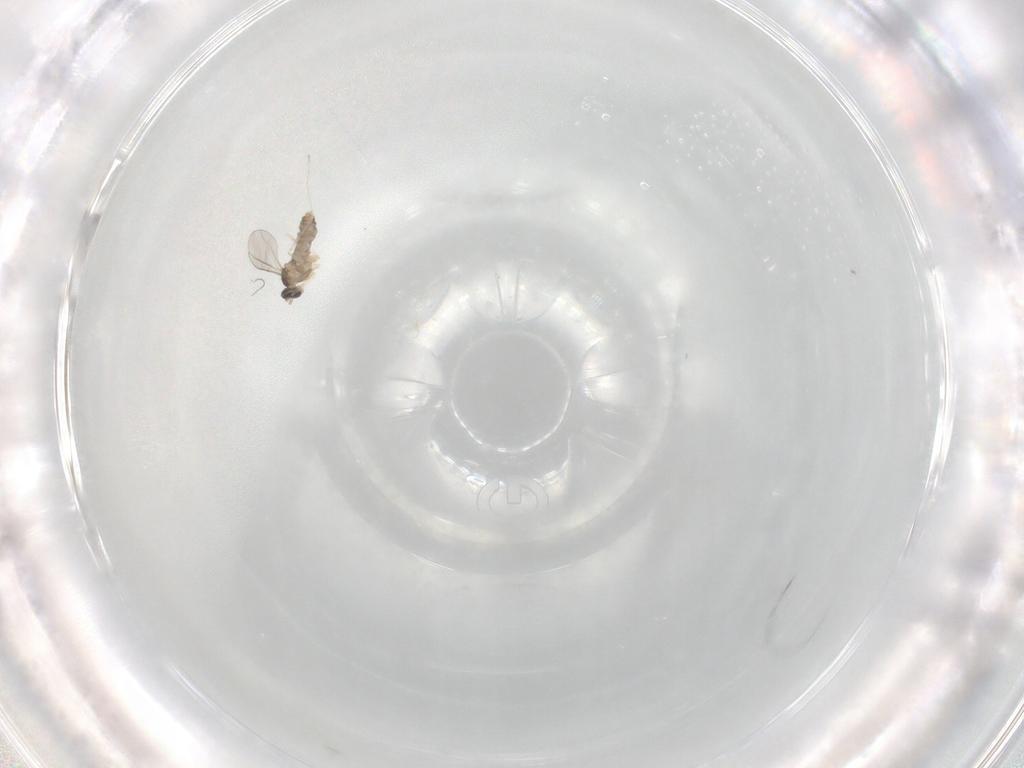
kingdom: Animalia
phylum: Arthropoda
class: Insecta
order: Diptera
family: Cecidomyiidae
